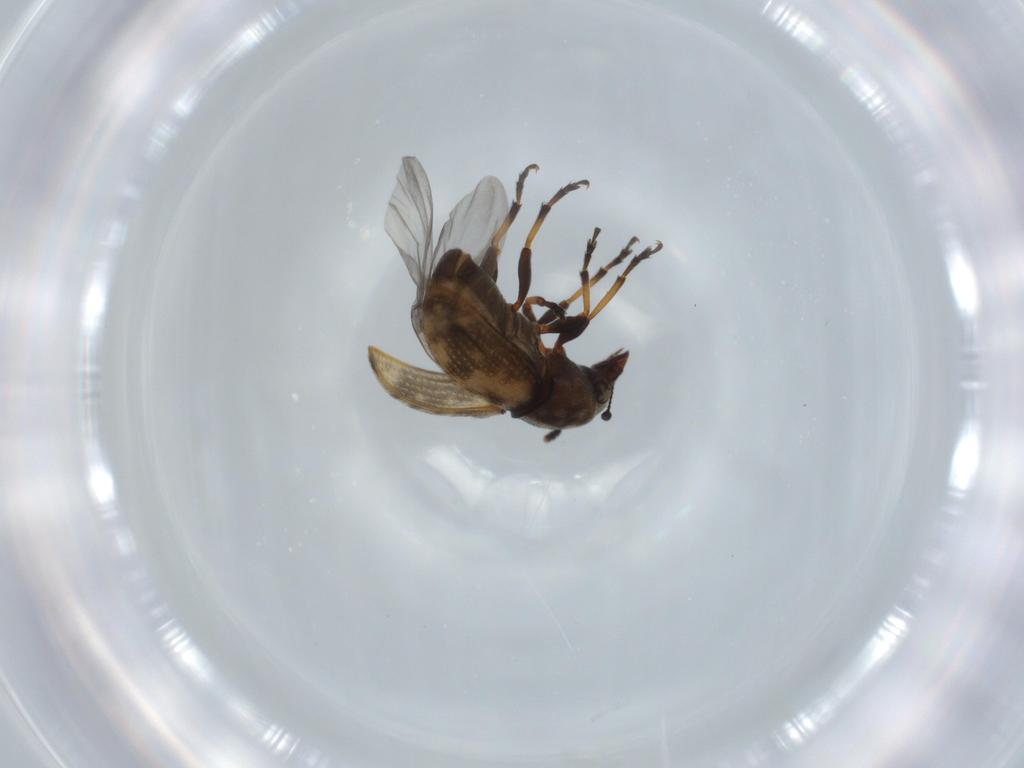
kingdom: Animalia
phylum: Arthropoda
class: Insecta
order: Coleoptera
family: Anthribidae
